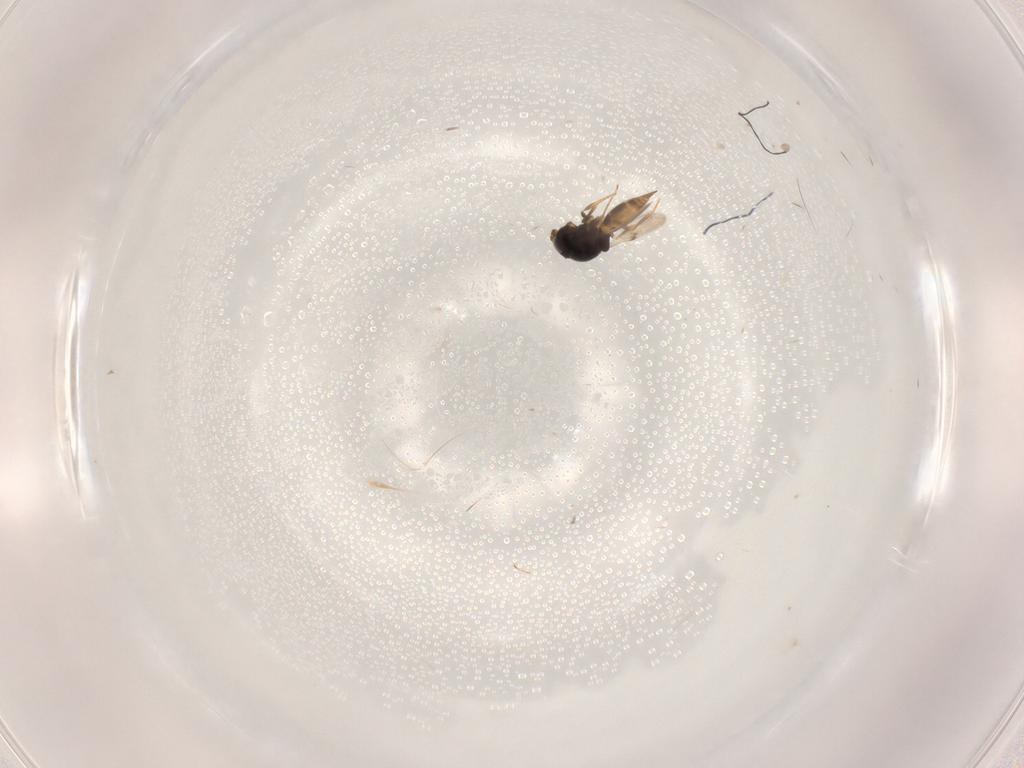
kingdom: Animalia
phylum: Arthropoda
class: Insecta
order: Hymenoptera
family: Scelionidae
